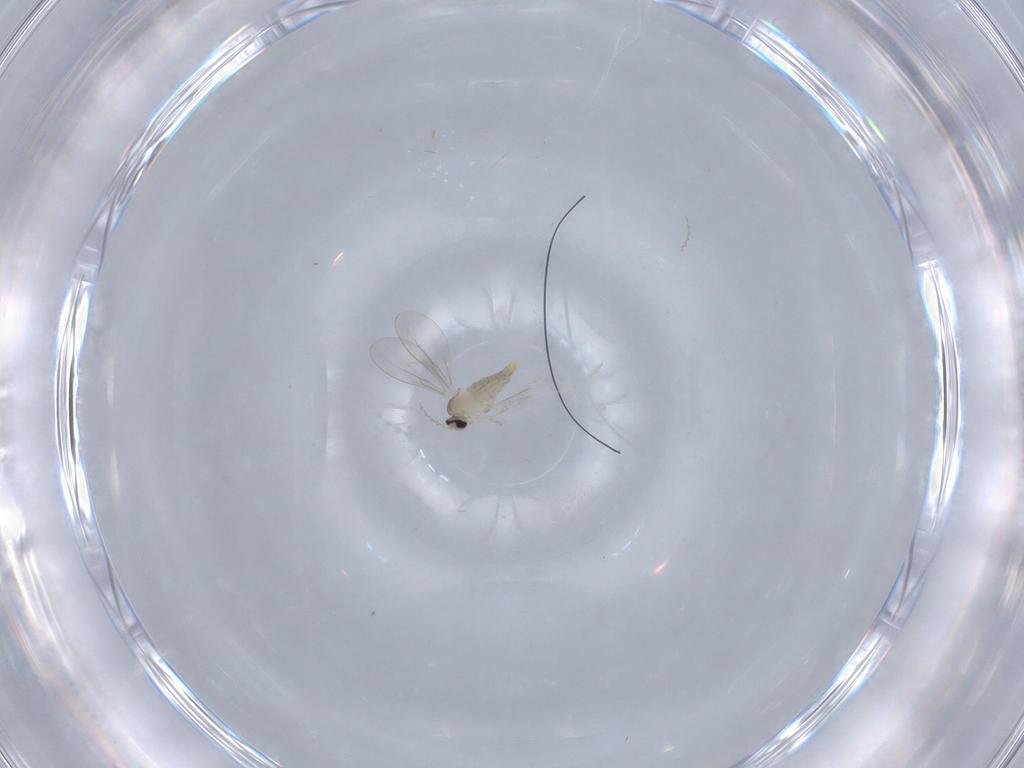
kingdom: Animalia
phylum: Arthropoda
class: Insecta
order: Diptera
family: Cecidomyiidae
